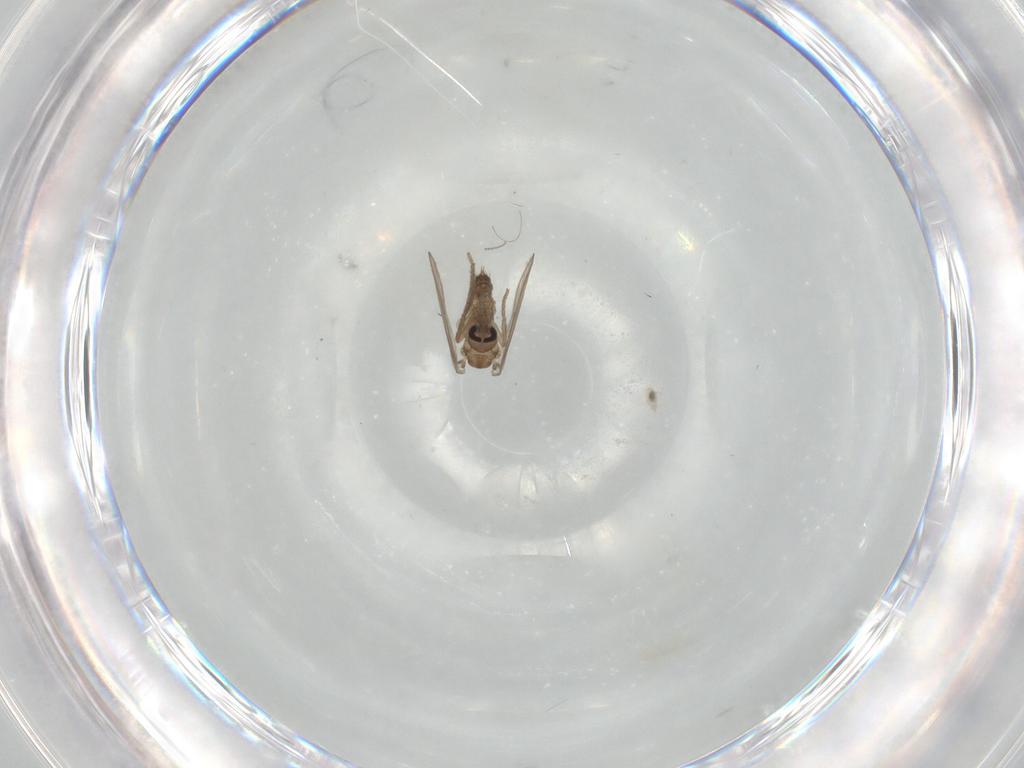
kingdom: Animalia
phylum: Arthropoda
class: Insecta
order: Diptera
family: Psychodidae
